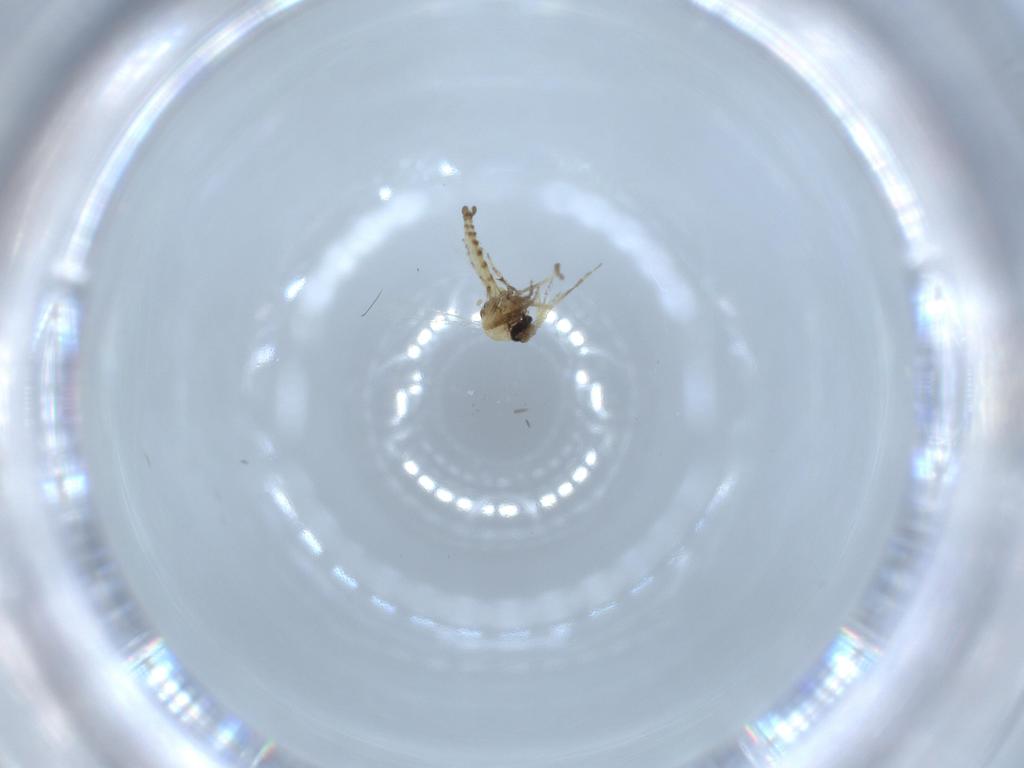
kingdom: Animalia
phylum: Arthropoda
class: Insecta
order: Diptera
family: Ceratopogonidae
